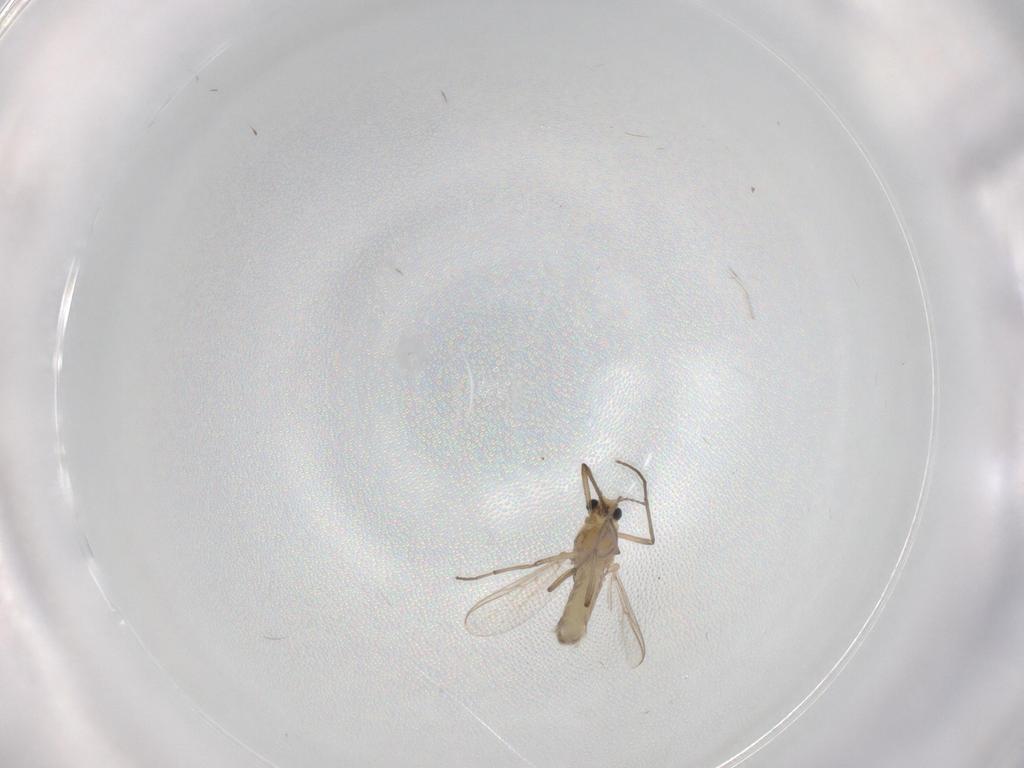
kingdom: Animalia
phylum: Arthropoda
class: Insecta
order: Diptera
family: Chironomidae
